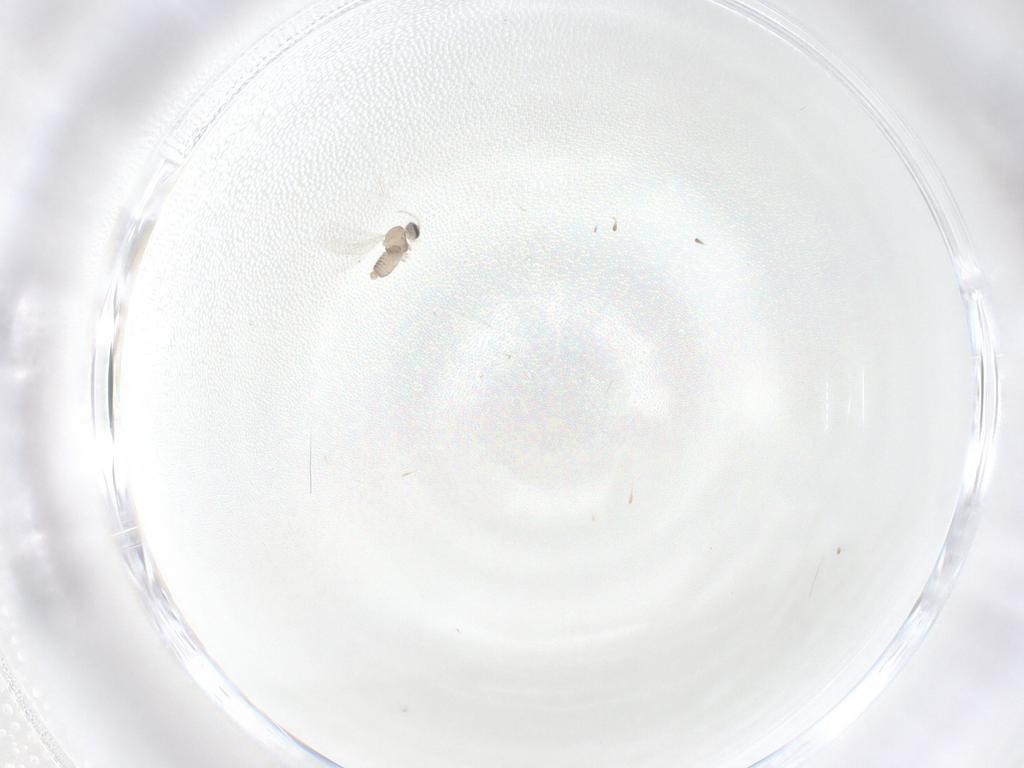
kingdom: Animalia
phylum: Arthropoda
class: Insecta
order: Diptera
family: Cecidomyiidae
